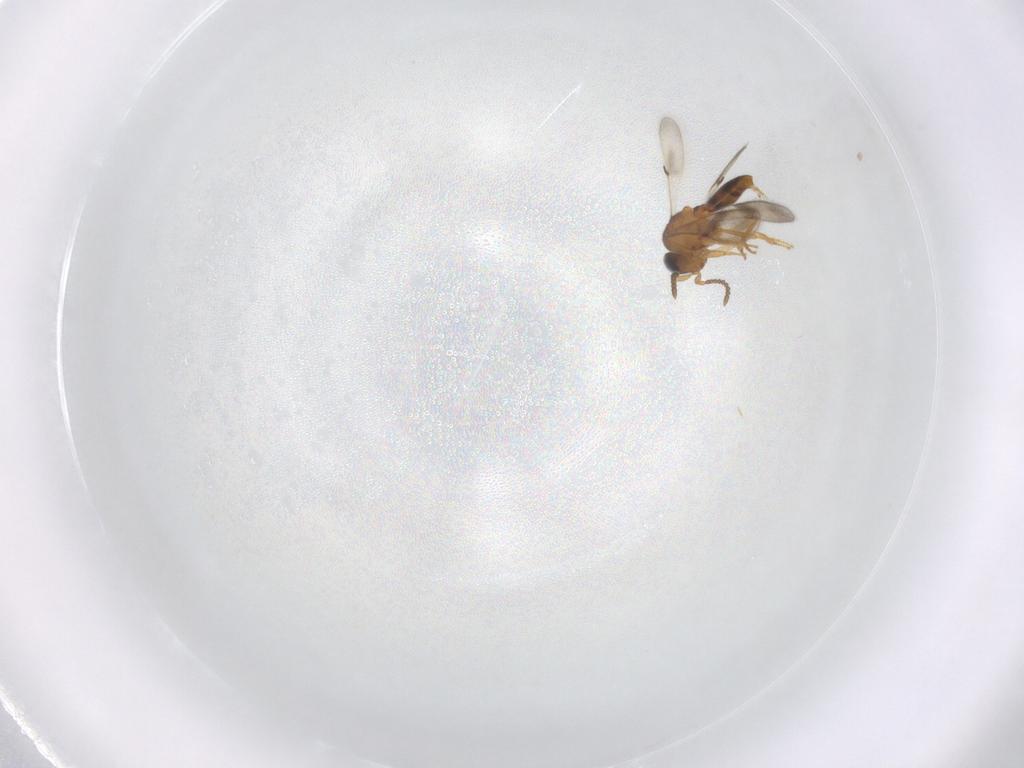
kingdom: Animalia
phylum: Arthropoda
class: Insecta
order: Hymenoptera
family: Scelionidae
